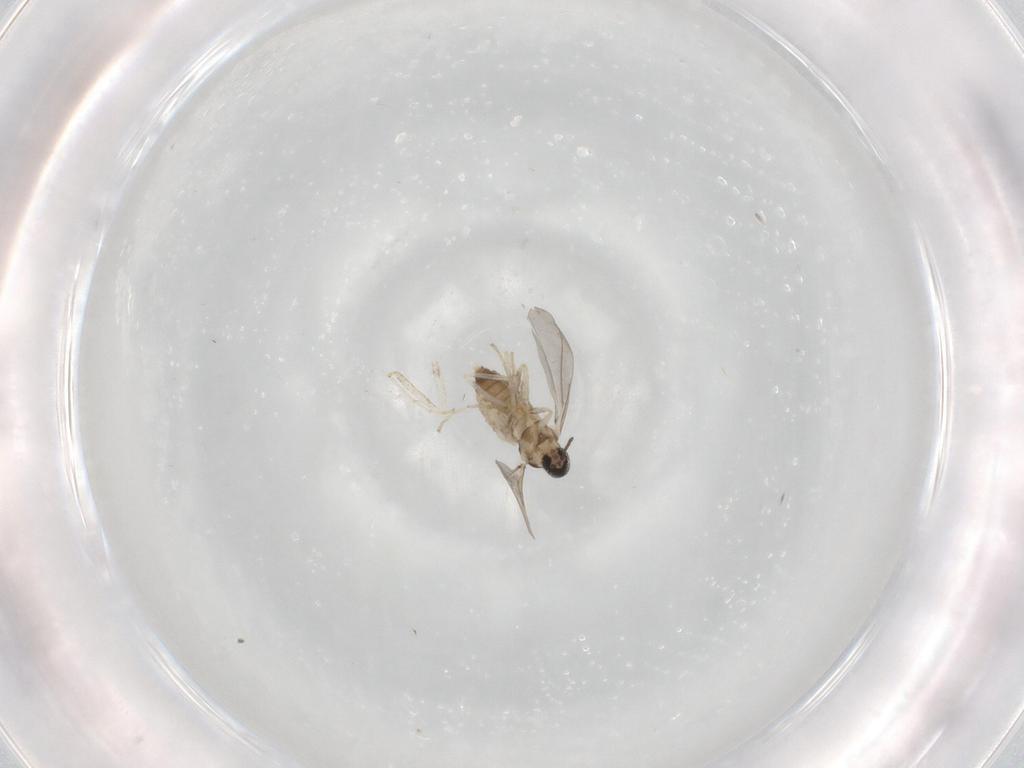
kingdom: Animalia
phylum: Arthropoda
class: Insecta
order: Diptera
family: Cecidomyiidae
